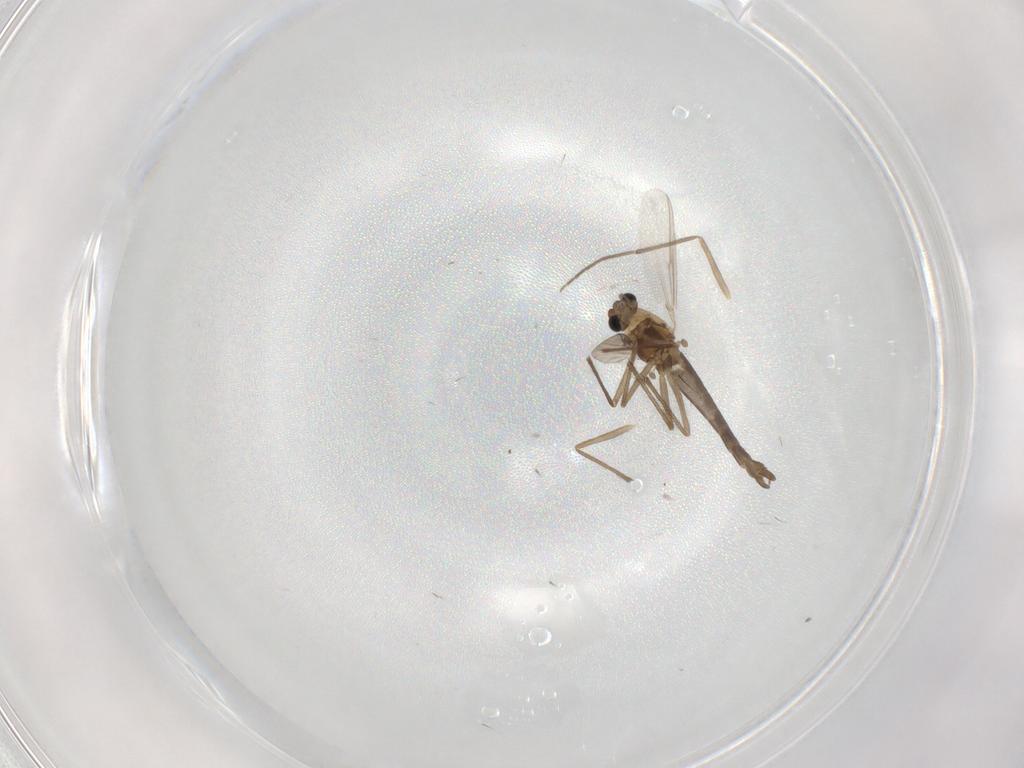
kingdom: Animalia
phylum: Arthropoda
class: Insecta
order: Diptera
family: Chironomidae
